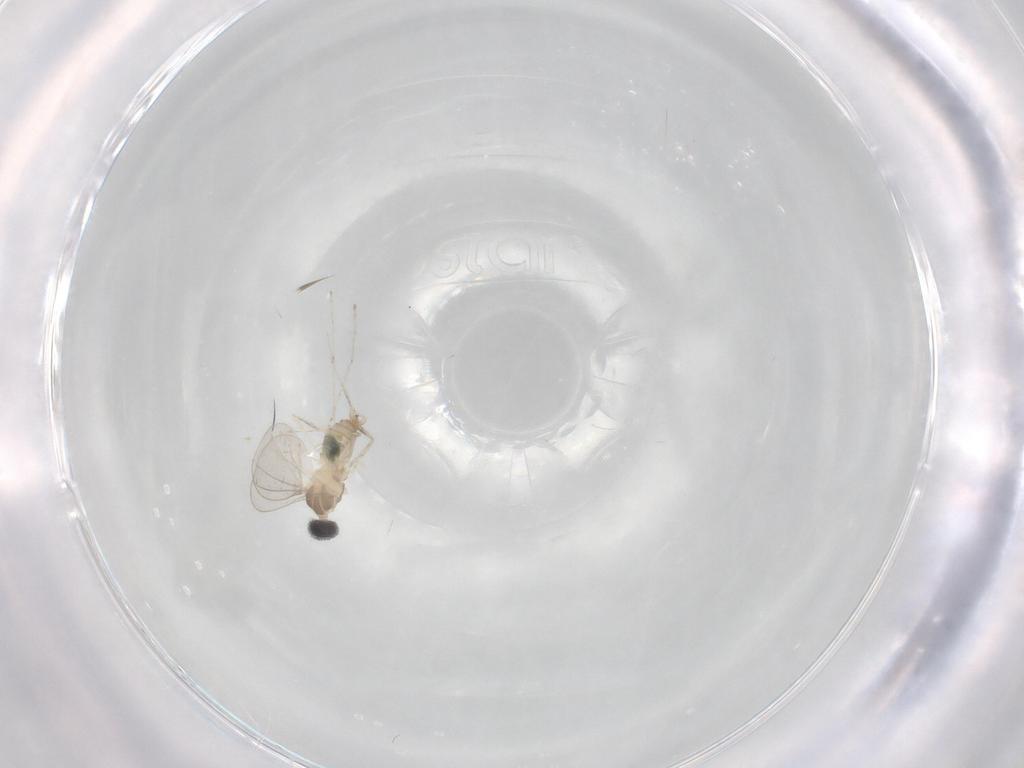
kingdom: Animalia
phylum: Arthropoda
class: Insecta
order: Diptera
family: Cecidomyiidae
